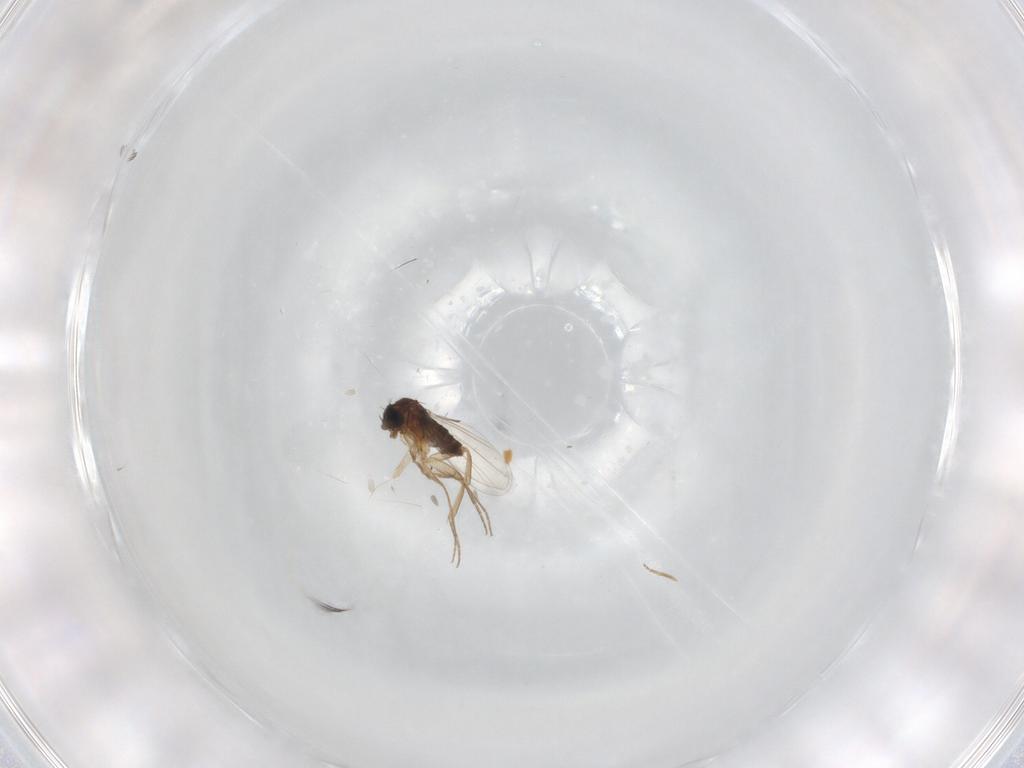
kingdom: Animalia
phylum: Arthropoda
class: Insecta
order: Diptera
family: Phoridae
